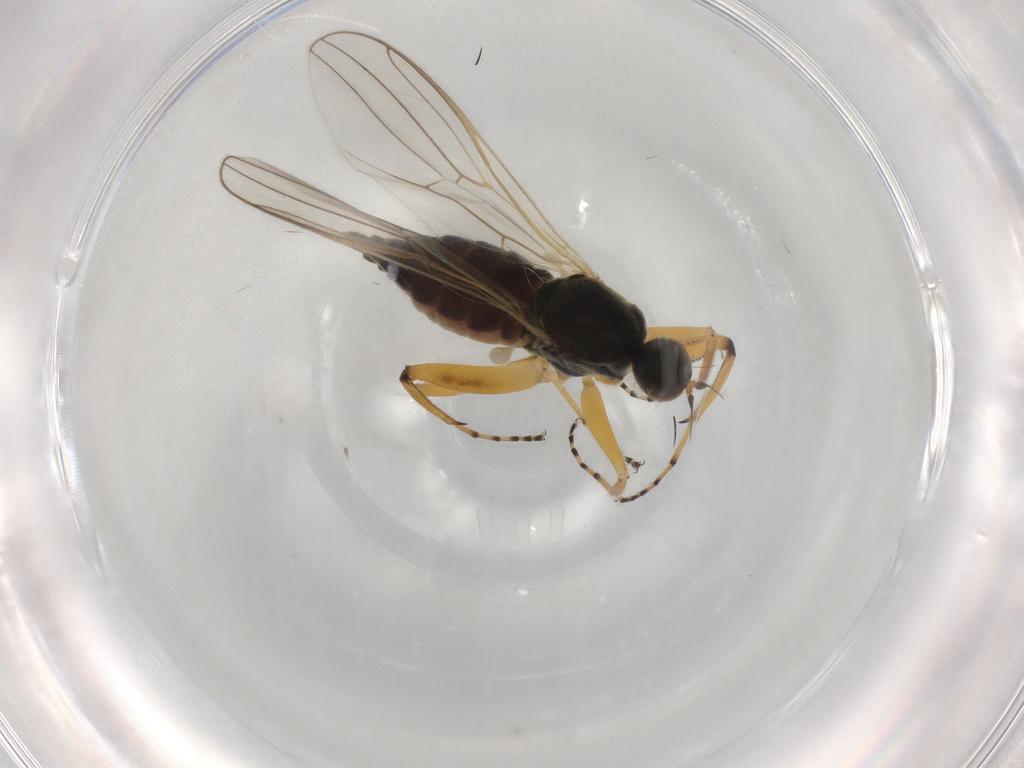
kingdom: Animalia
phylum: Arthropoda
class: Insecta
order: Diptera
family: Hybotidae
